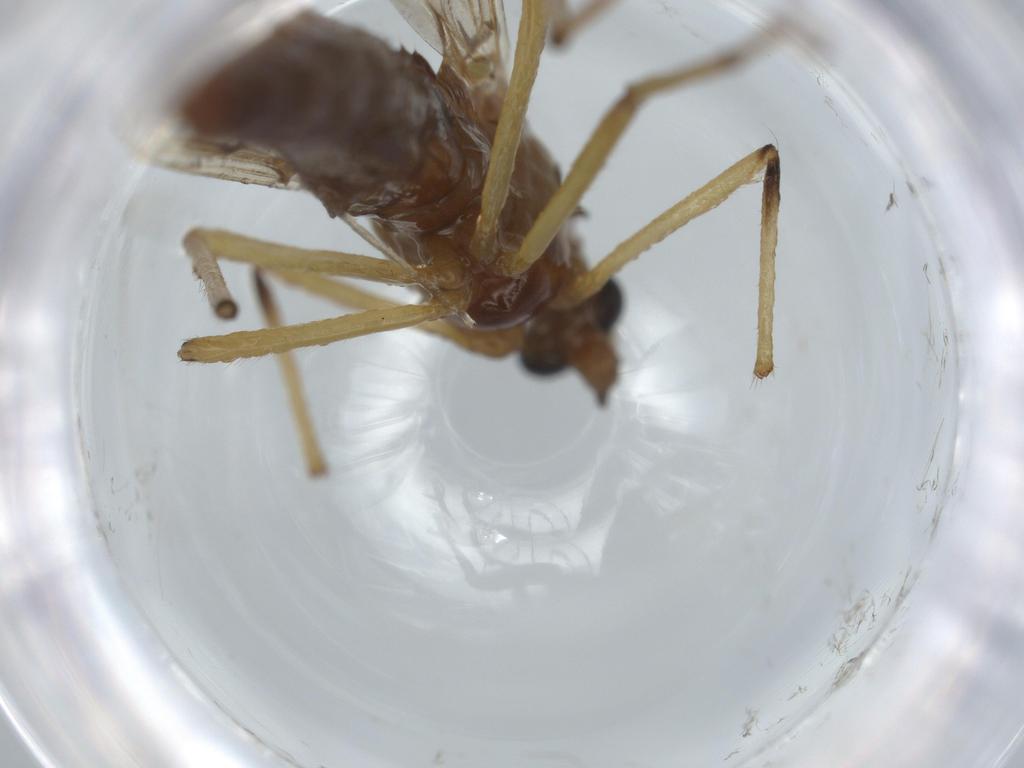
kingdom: Animalia
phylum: Arthropoda
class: Insecta
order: Diptera
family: Chironomidae
